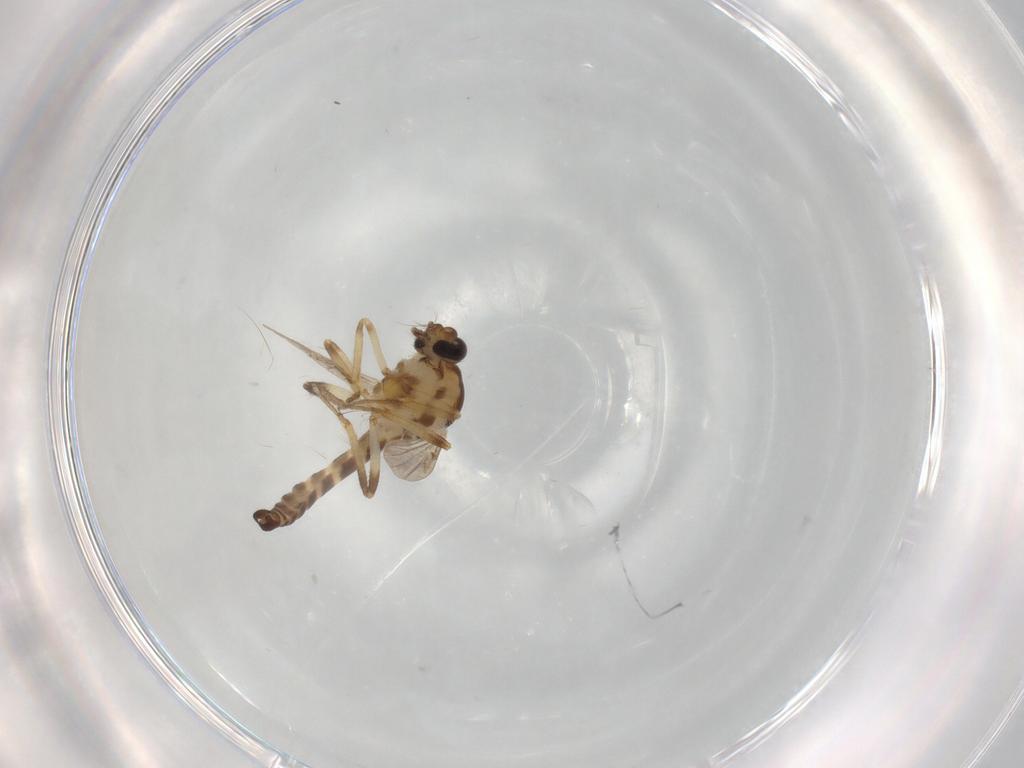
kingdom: Animalia
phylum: Arthropoda
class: Insecta
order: Diptera
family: Ceratopogonidae
